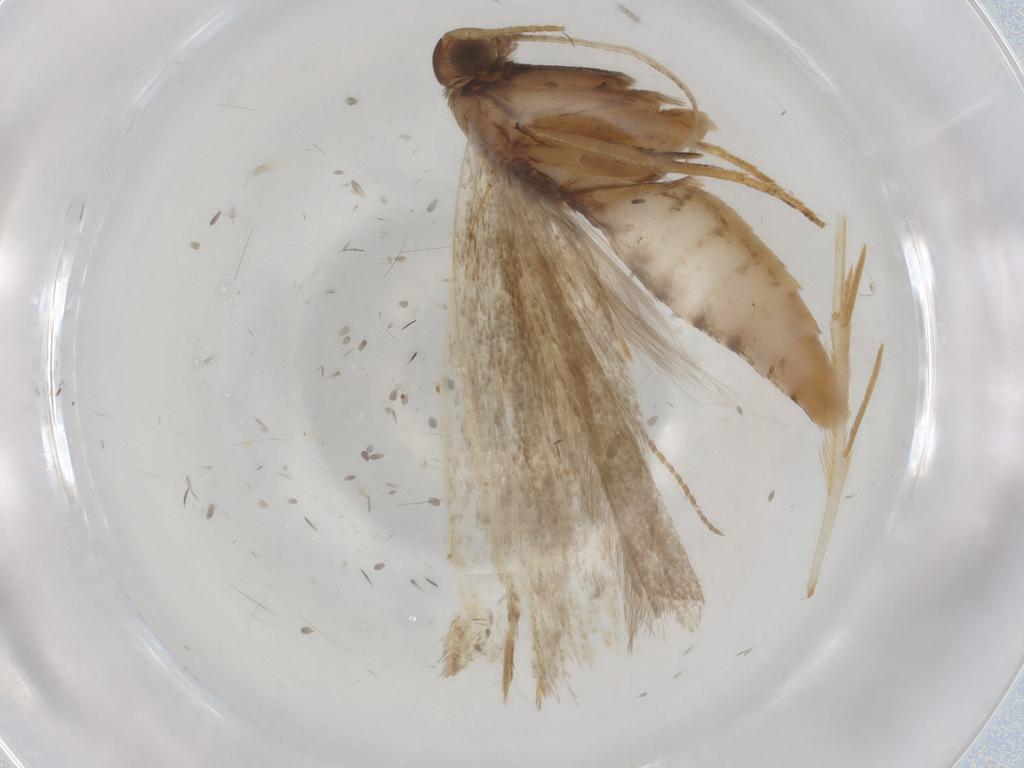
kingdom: Animalia
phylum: Arthropoda
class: Insecta
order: Lepidoptera
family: Gelechiidae
